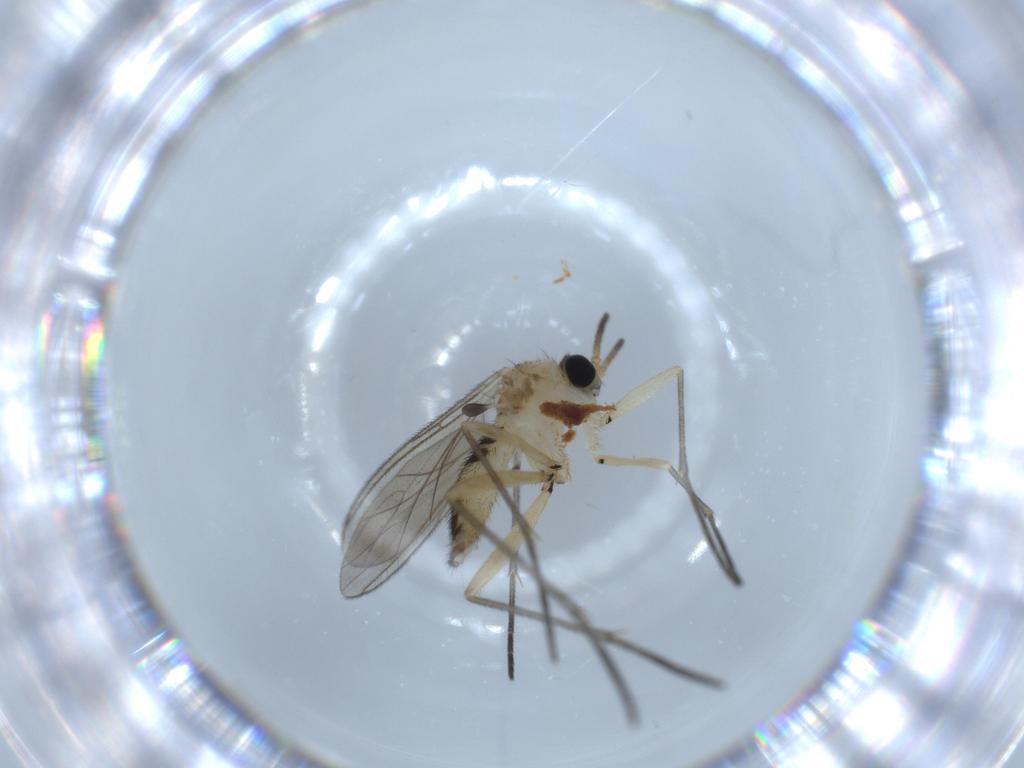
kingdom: Animalia
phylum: Arthropoda
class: Insecta
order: Diptera
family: Sciaridae
